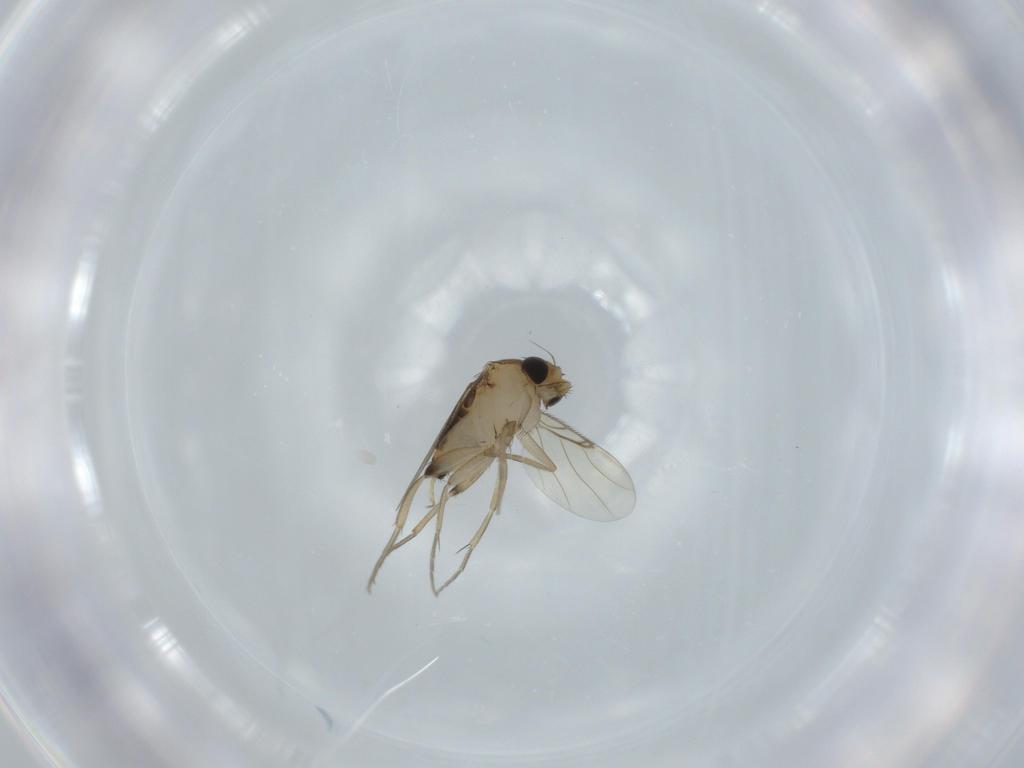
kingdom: Animalia
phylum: Arthropoda
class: Insecta
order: Diptera
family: Phoridae
